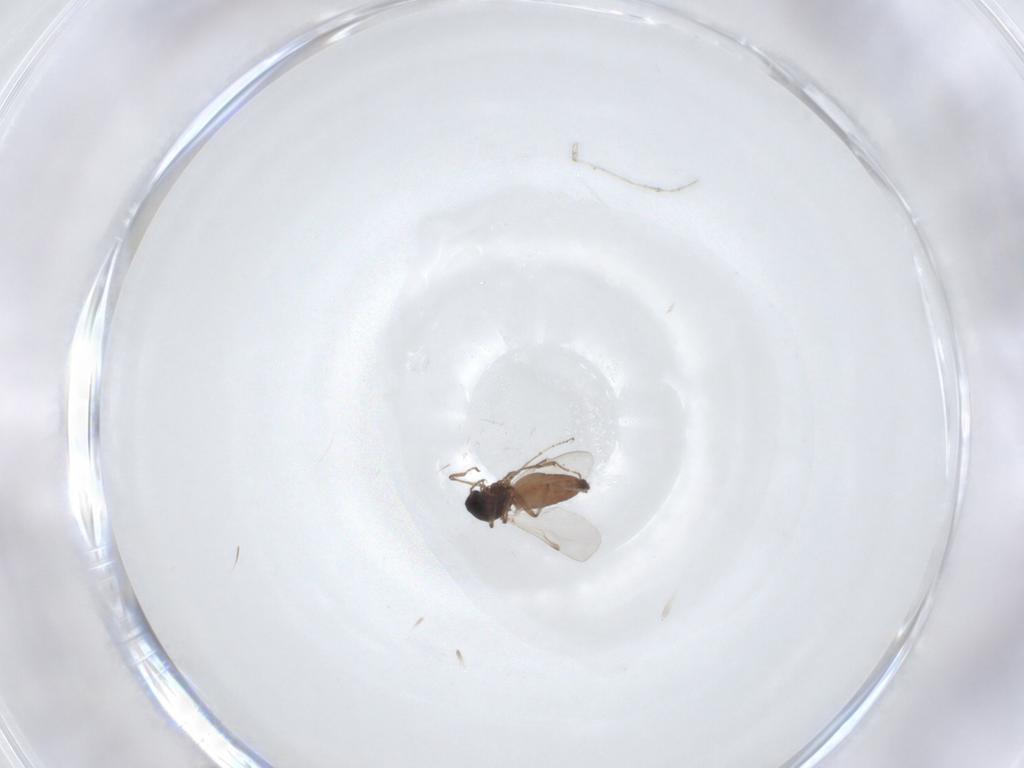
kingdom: Animalia
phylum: Arthropoda
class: Insecta
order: Diptera
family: Ceratopogonidae
